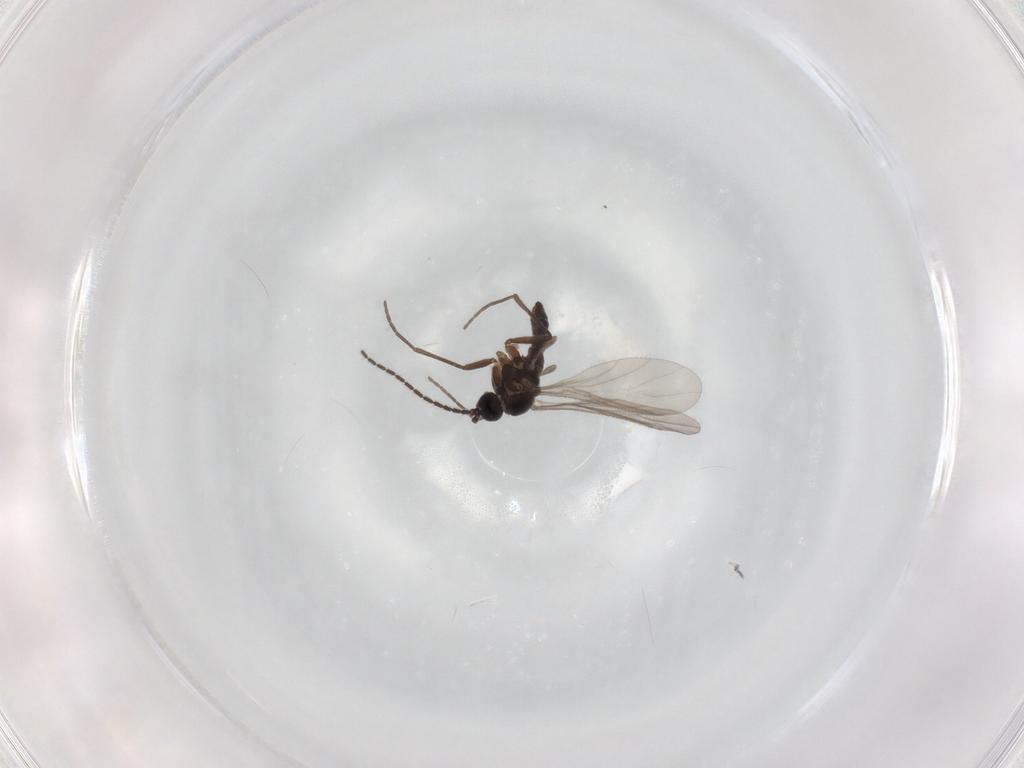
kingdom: Animalia
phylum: Arthropoda
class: Insecta
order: Diptera
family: Sciaridae
